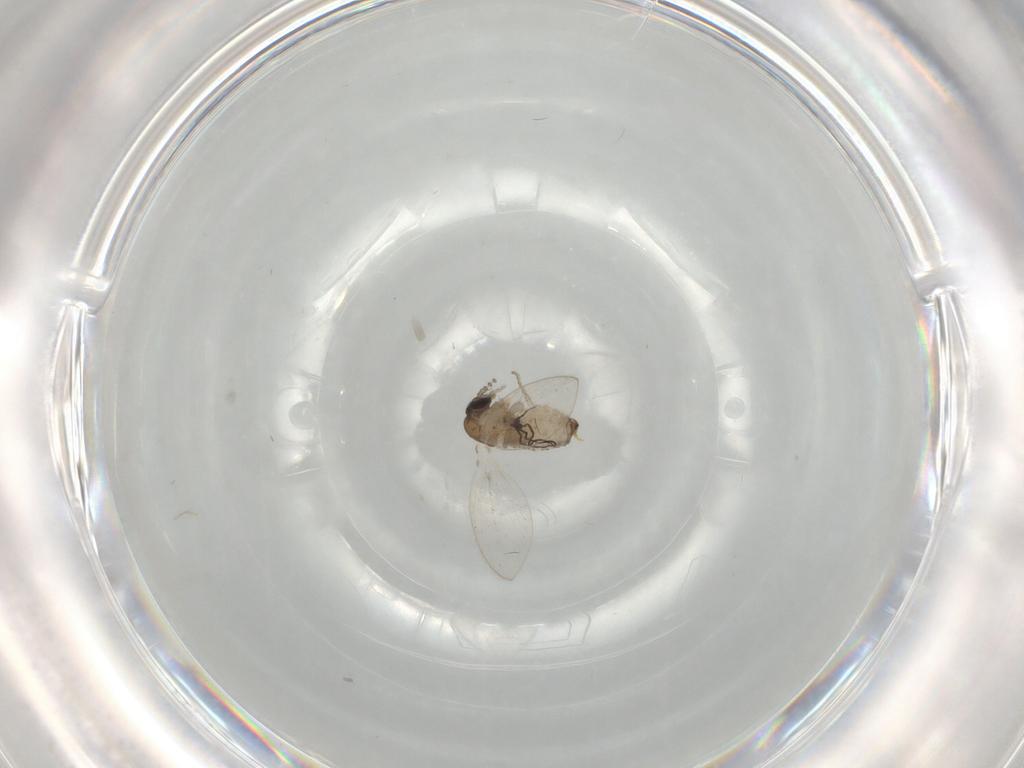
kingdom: Animalia
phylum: Arthropoda
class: Insecta
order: Diptera
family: Psychodidae
